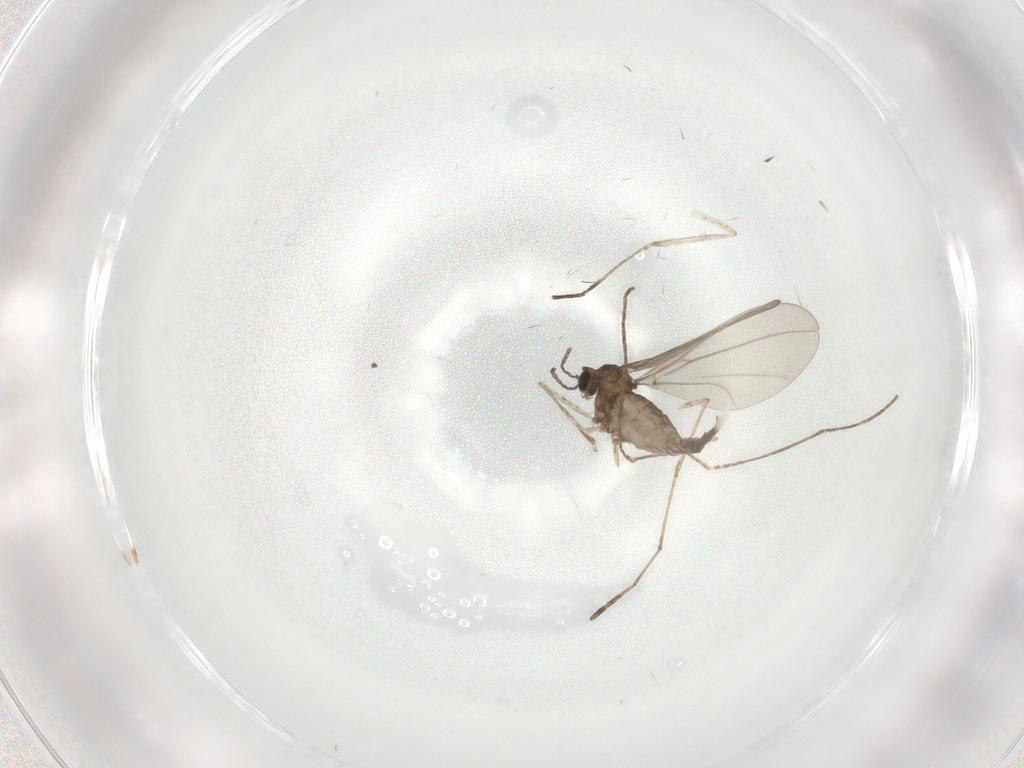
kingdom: Animalia
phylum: Arthropoda
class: Insecta
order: Diptera
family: Cecidomyiidae
